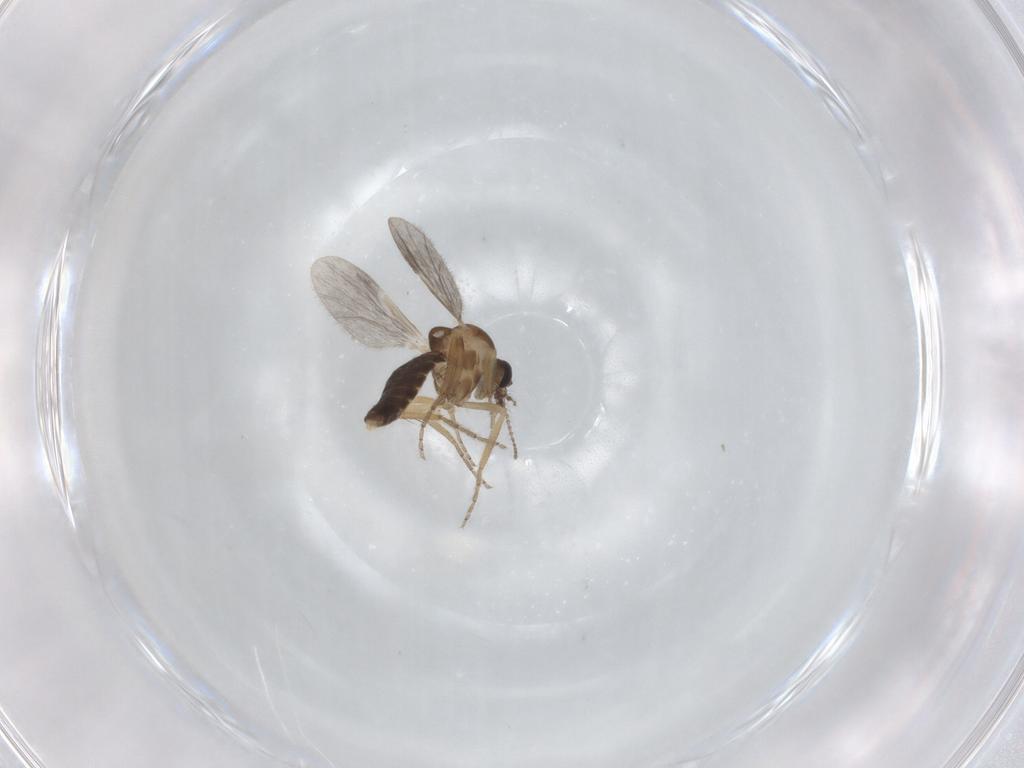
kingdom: Animalia
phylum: Arthropoda
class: Insecta
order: Diptera
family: Ceratopogonidae
